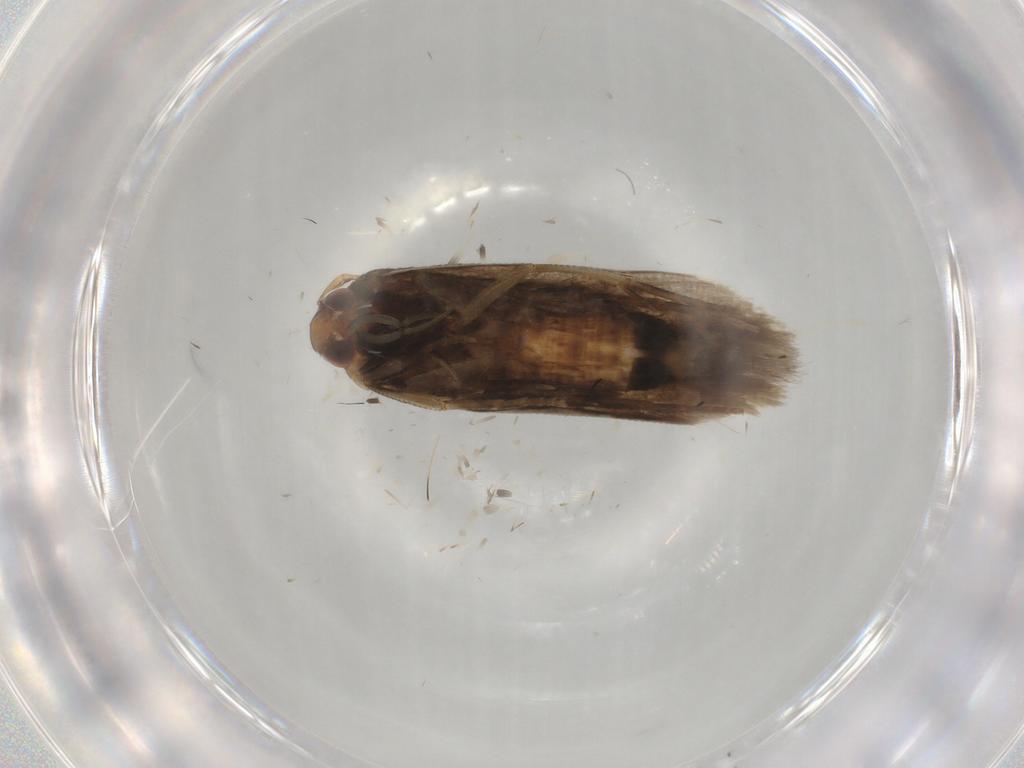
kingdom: Animalia
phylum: Arthropoda
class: Insecta
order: Lepidoptera
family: Noctuidae
